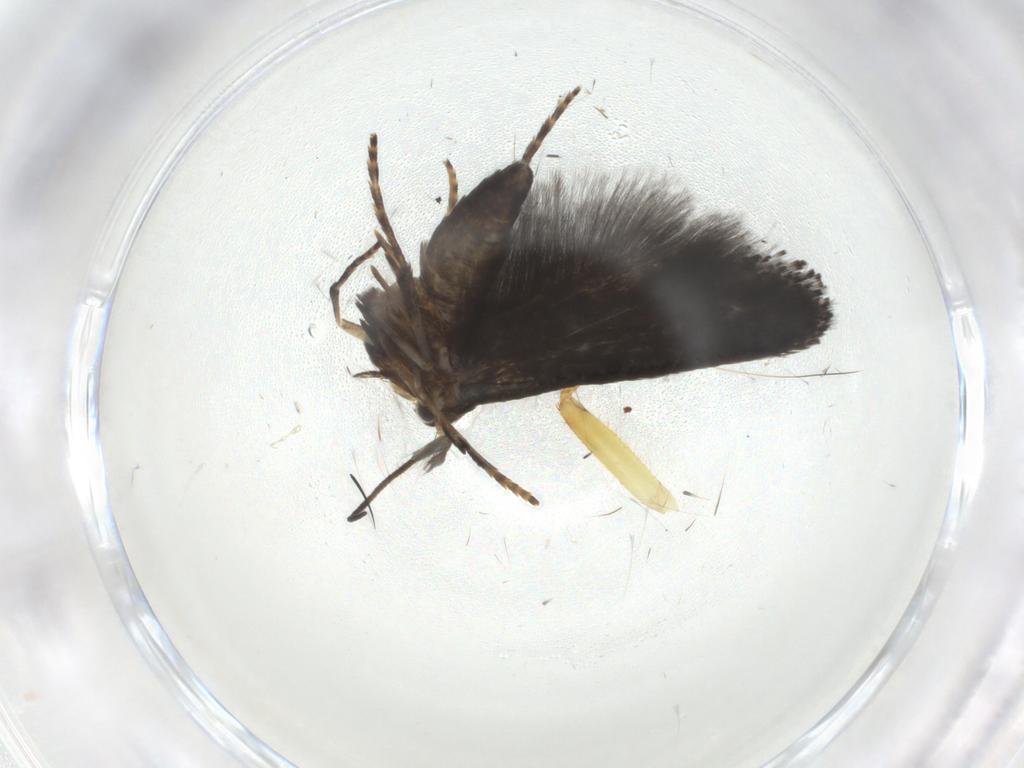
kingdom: Animalia
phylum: Arthropoda
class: Insecta
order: Lepidoptera
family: Pieridae
